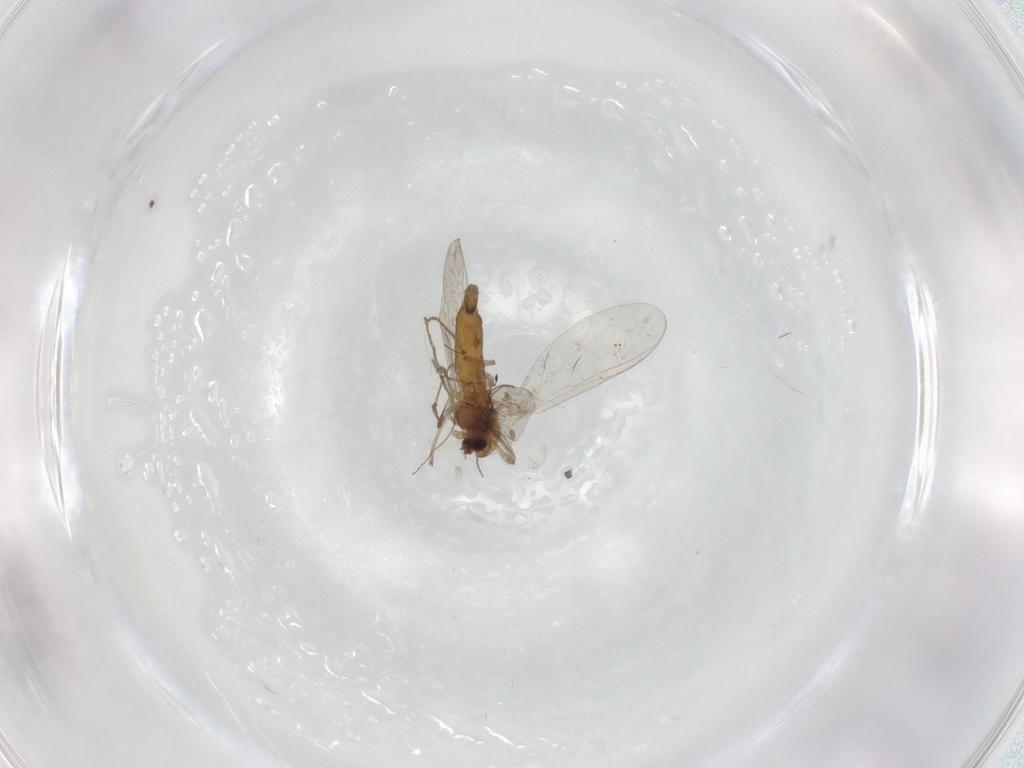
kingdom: Animalia
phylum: Arthropoda
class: Insecta
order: Diptera
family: Chironomidae
